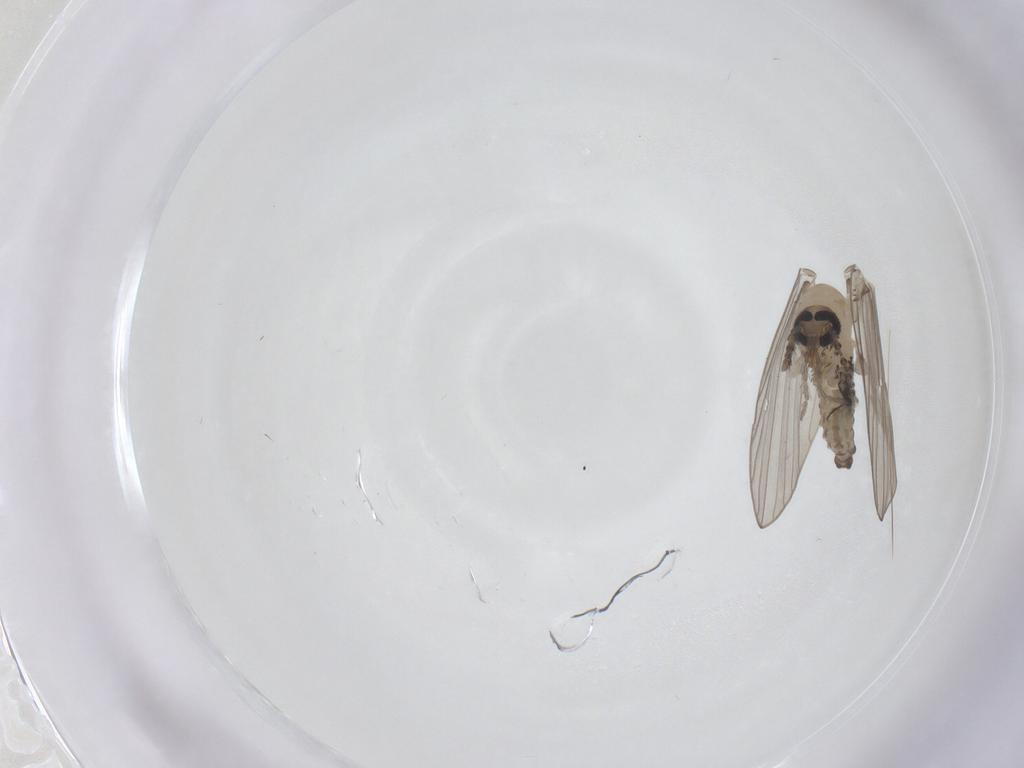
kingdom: Animalia
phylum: Arthropoda
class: Insecta
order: Diptera
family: Psychodidae
